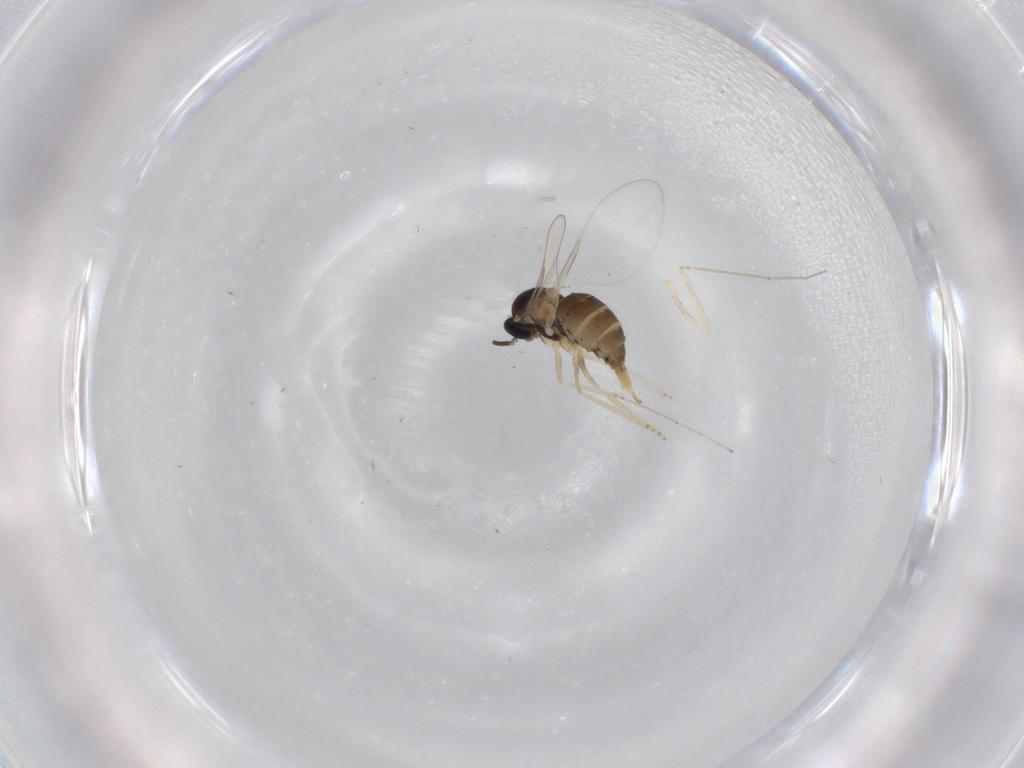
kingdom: Animalia
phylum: Arthropoda
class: Insecta
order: Diptera
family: Cecidomyiidae
